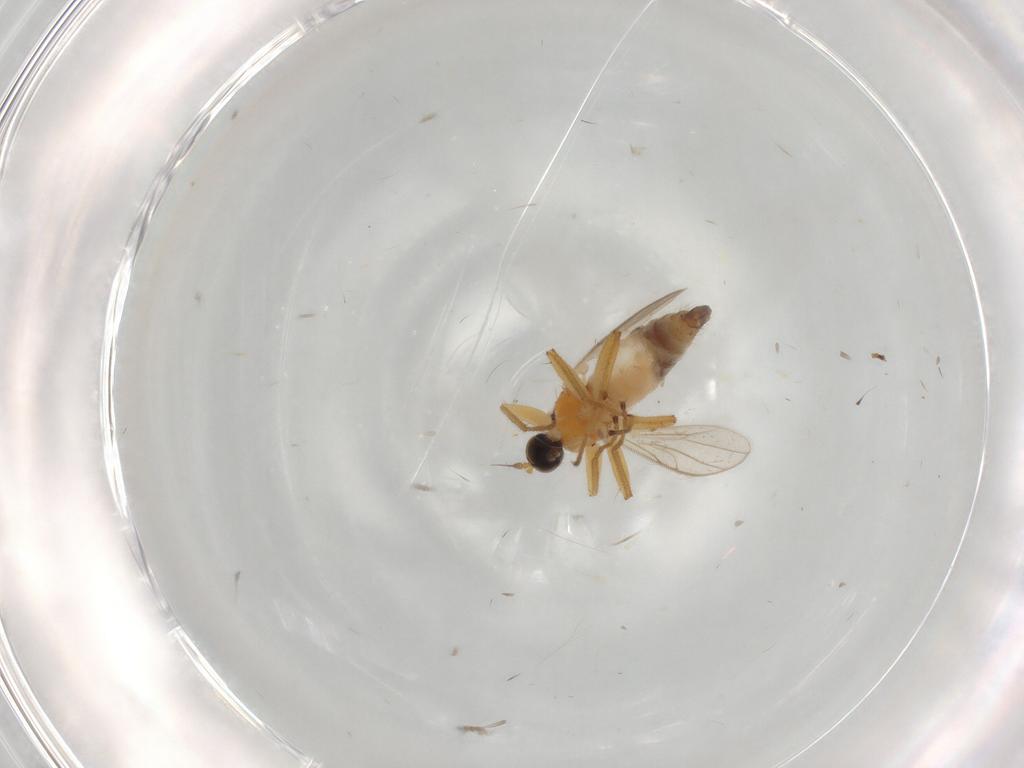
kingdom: Animalia
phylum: Arthropoda
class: Insecta
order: Diptera
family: Hybotidae
